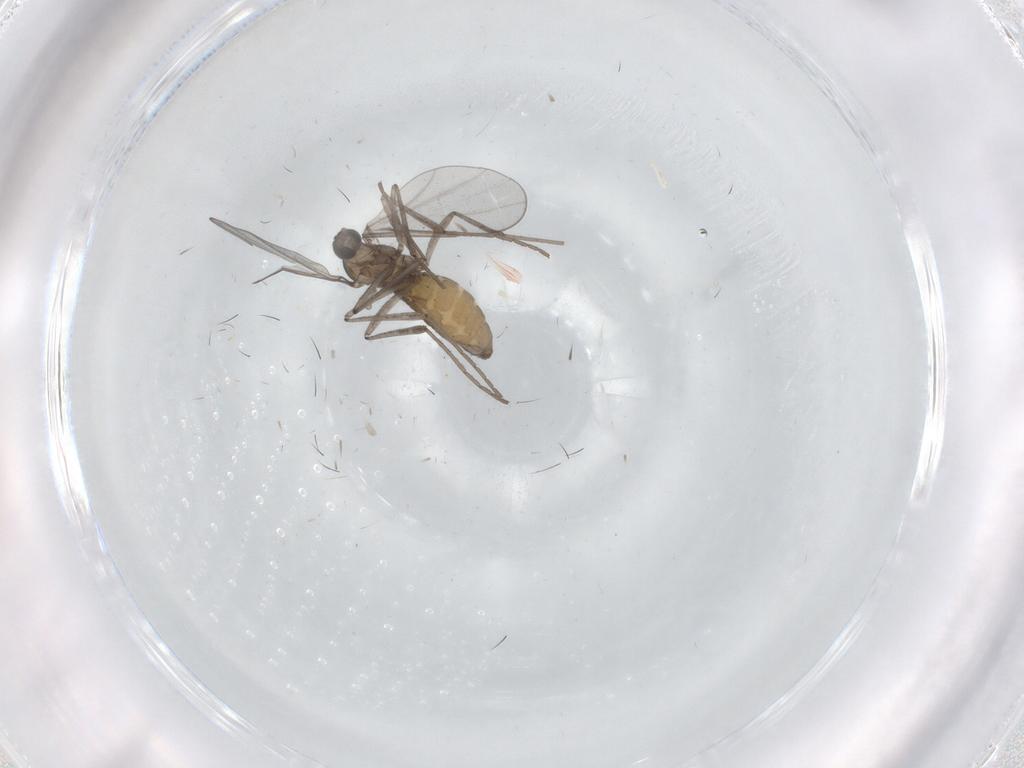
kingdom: Animalia
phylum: Arthropoda
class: Insecta
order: Diptera
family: Cecidomyiidae
